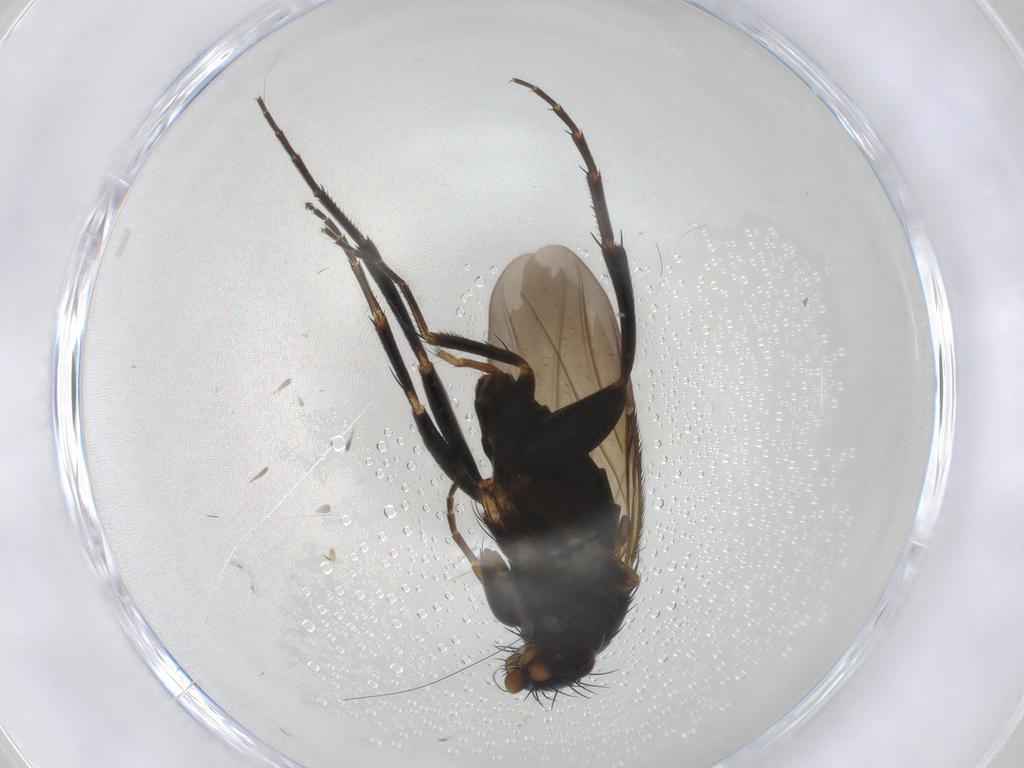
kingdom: Animalia
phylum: Arthropoda
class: Insecta
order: Diptera
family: Phoridae
